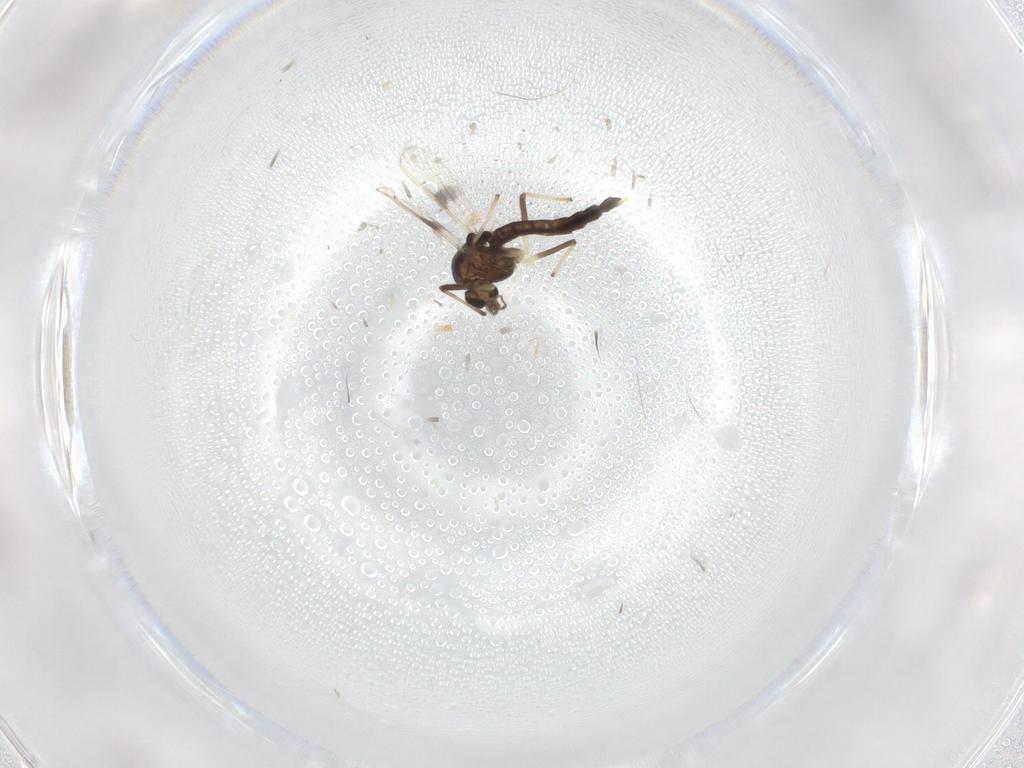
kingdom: Animalia
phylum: Arthropoda
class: Insecta
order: Diptera
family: Chironomidae
